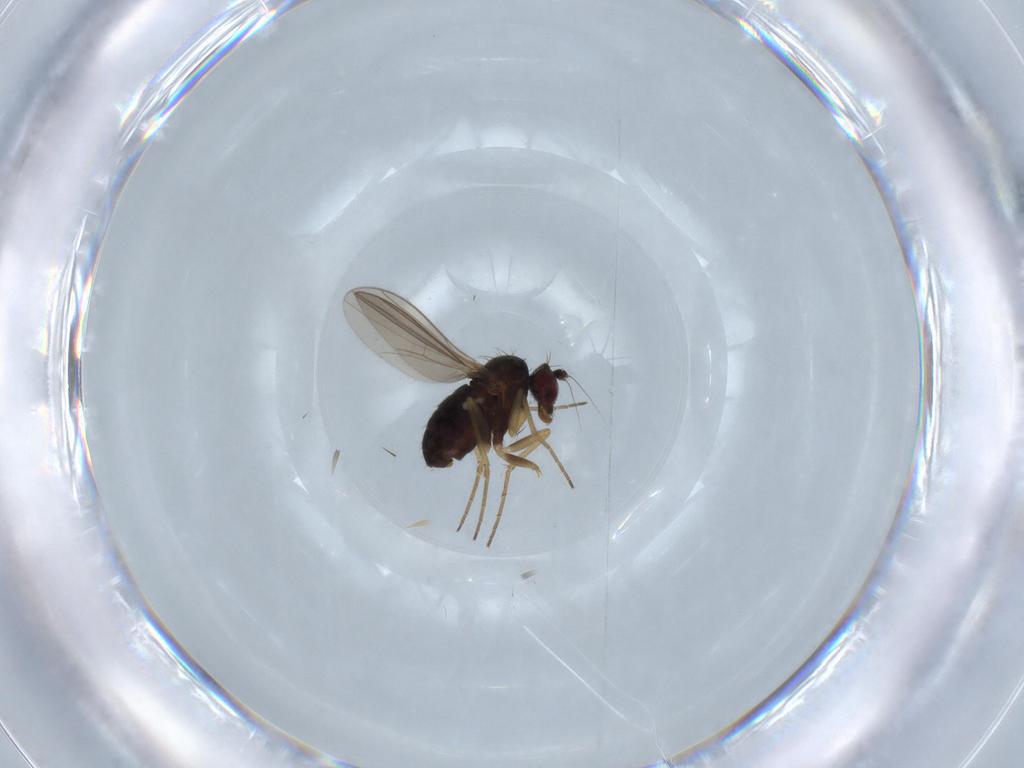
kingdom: Animalia
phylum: Arthropoda
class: Insecta
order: Diptera
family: Dolichopodidae
